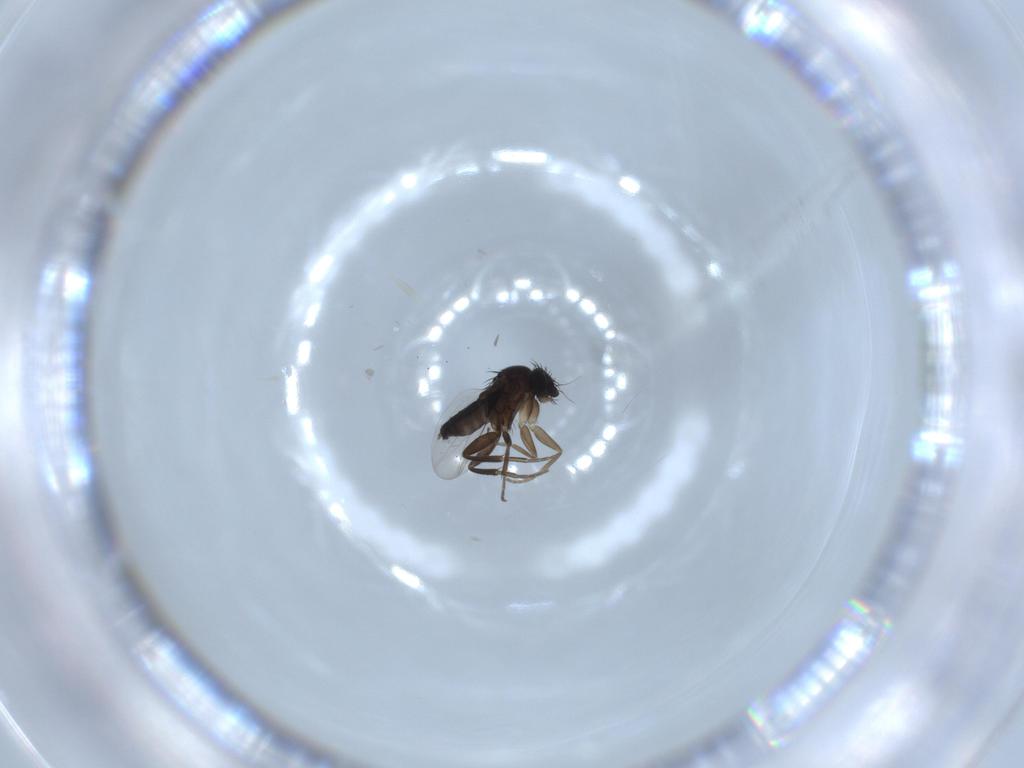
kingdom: Animalia
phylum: Arthropoda
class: Insecta
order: Diptera
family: Phoridae
